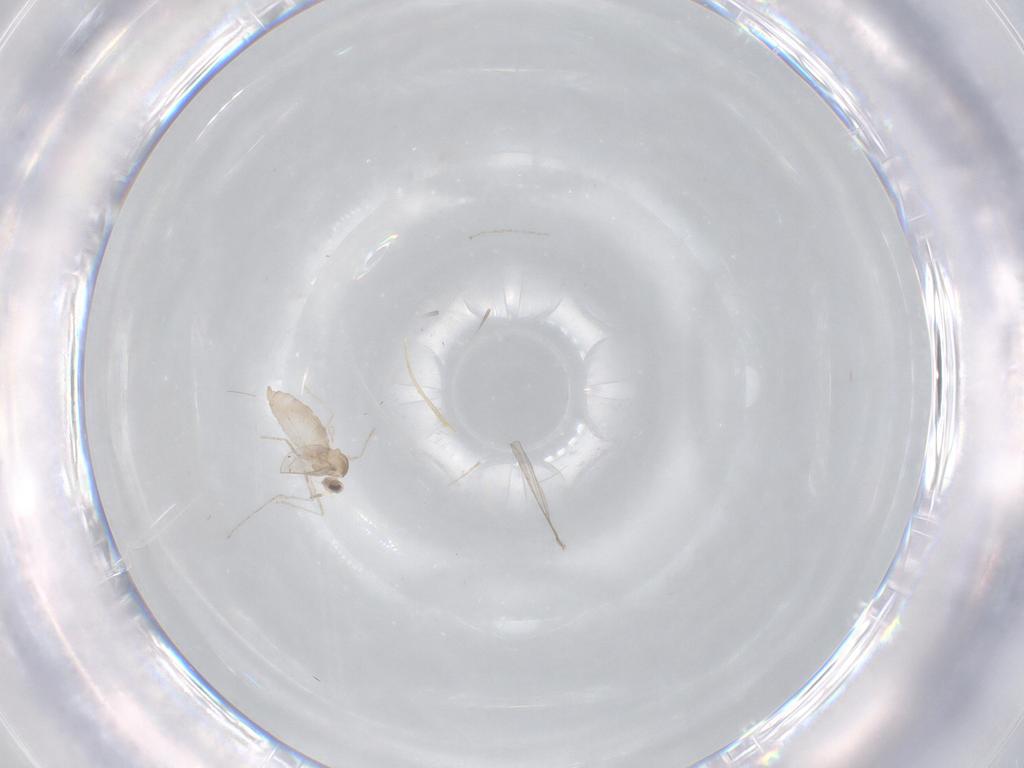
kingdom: Animalia
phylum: Arthropoda
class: Insecta
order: Diptera
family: Cecidomyiidae
